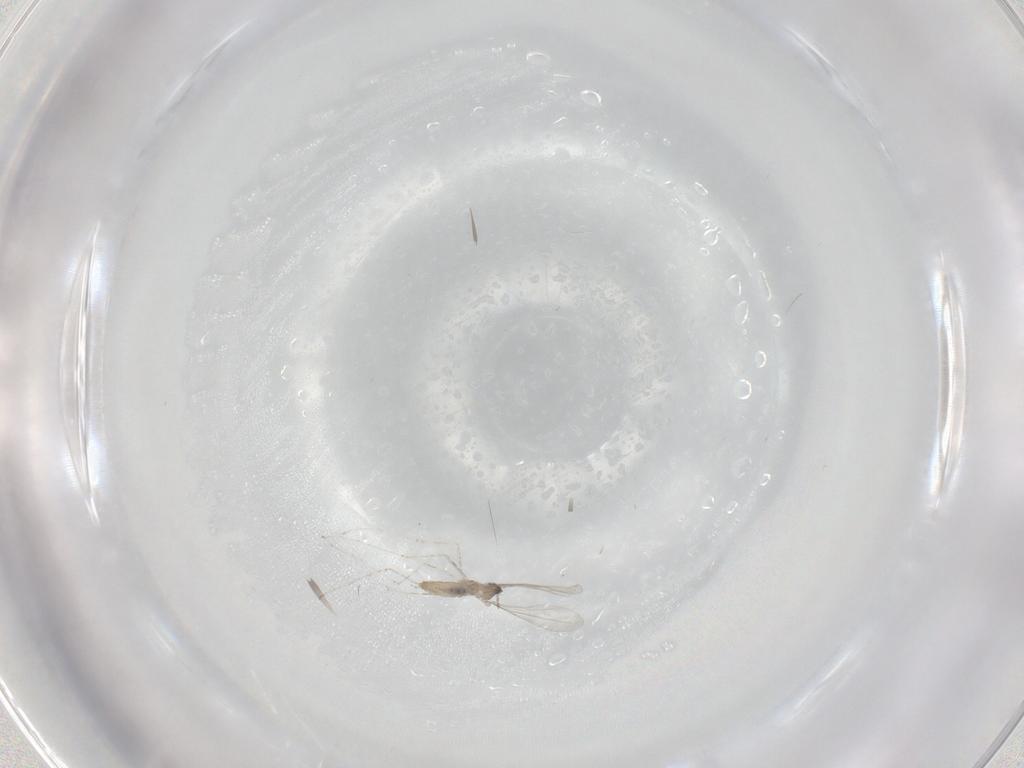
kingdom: Animalia
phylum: Arthropoda
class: Insecta
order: Diptera
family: Cecidomyiidae
